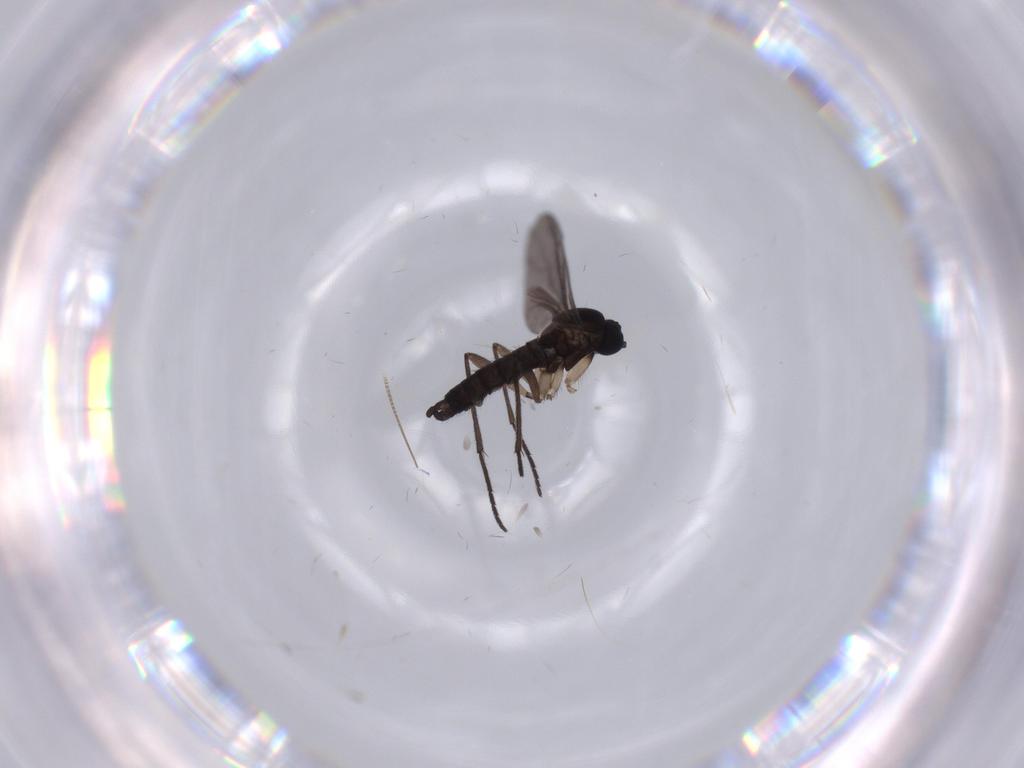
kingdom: Animalia
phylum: Arthropoda
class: Insecta
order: Diptera
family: Sciaridae
